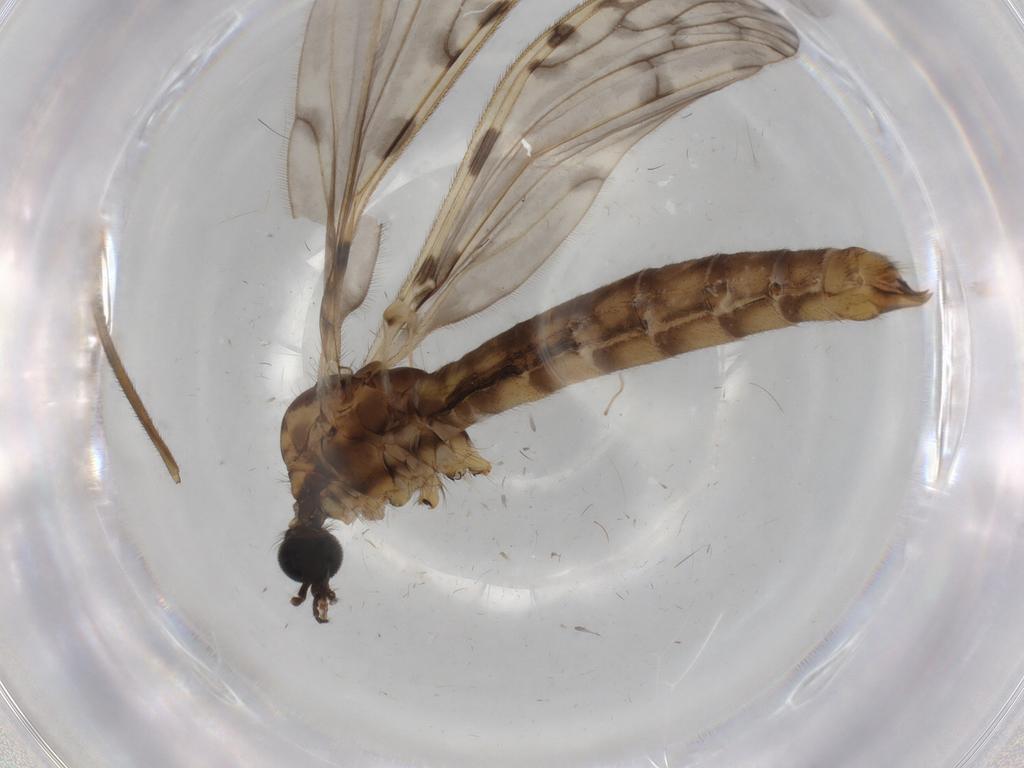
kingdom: Animalia
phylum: Arthropoda
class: Insecta
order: Diptera
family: Dolichopodidae
